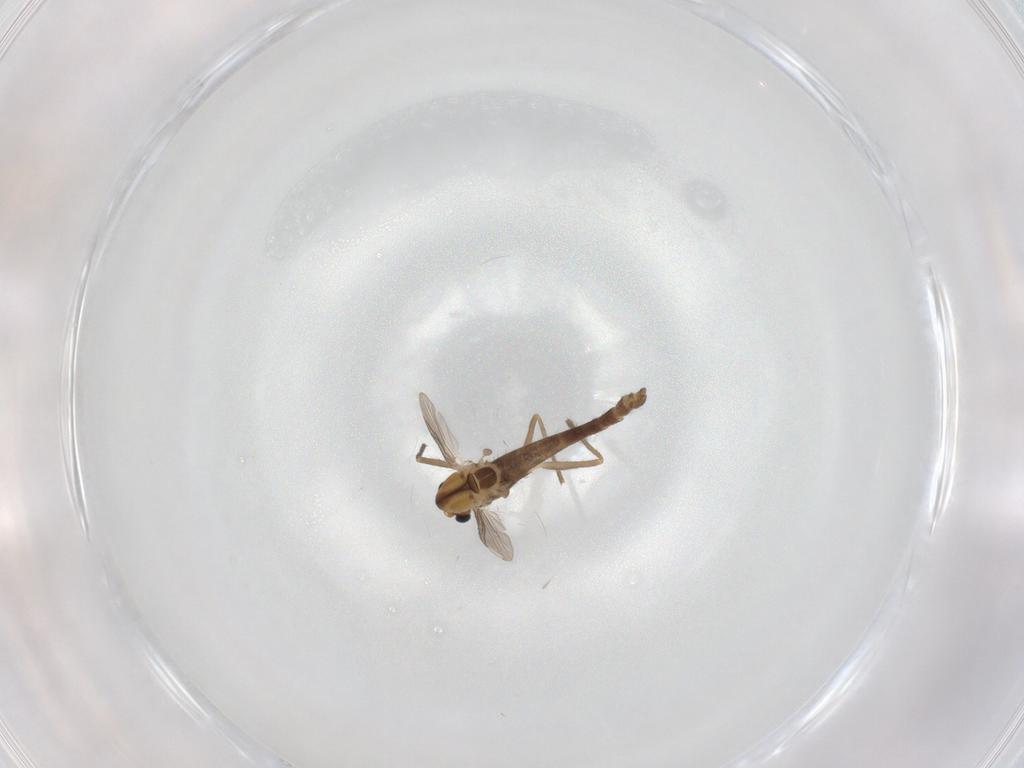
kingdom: Animalia
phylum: Arthropoda
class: Insecta
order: Diptera
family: Chironomidae
